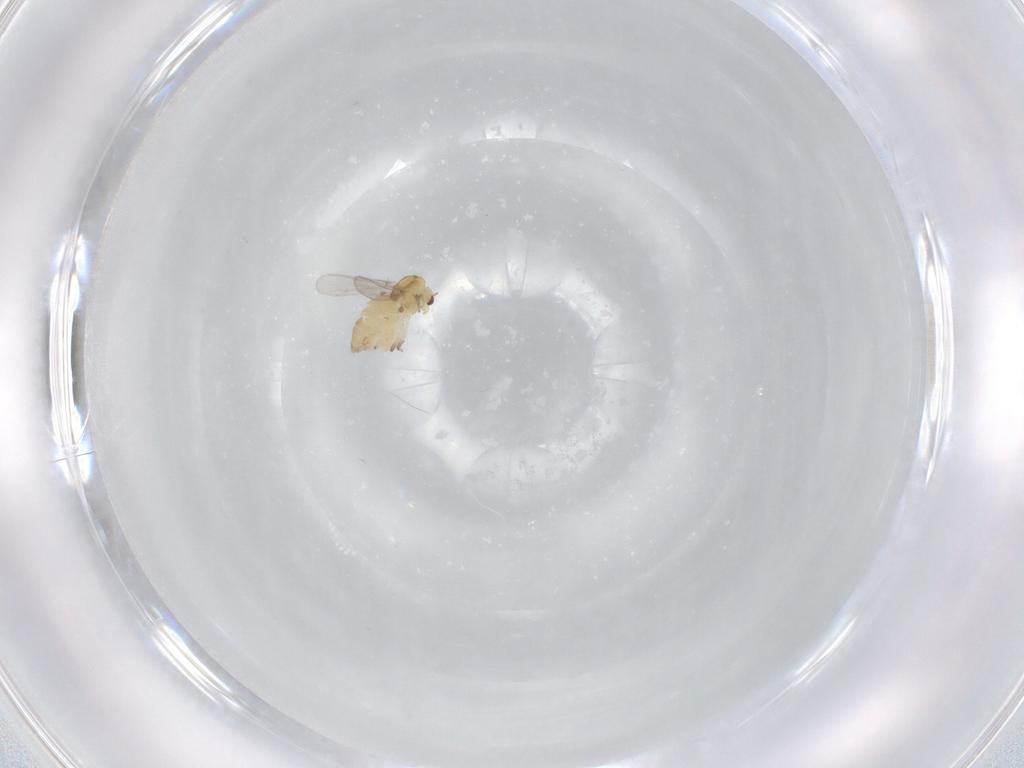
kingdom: Animalia
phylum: Arthropoda
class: Insecta
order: Diptera
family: Chironomidae
